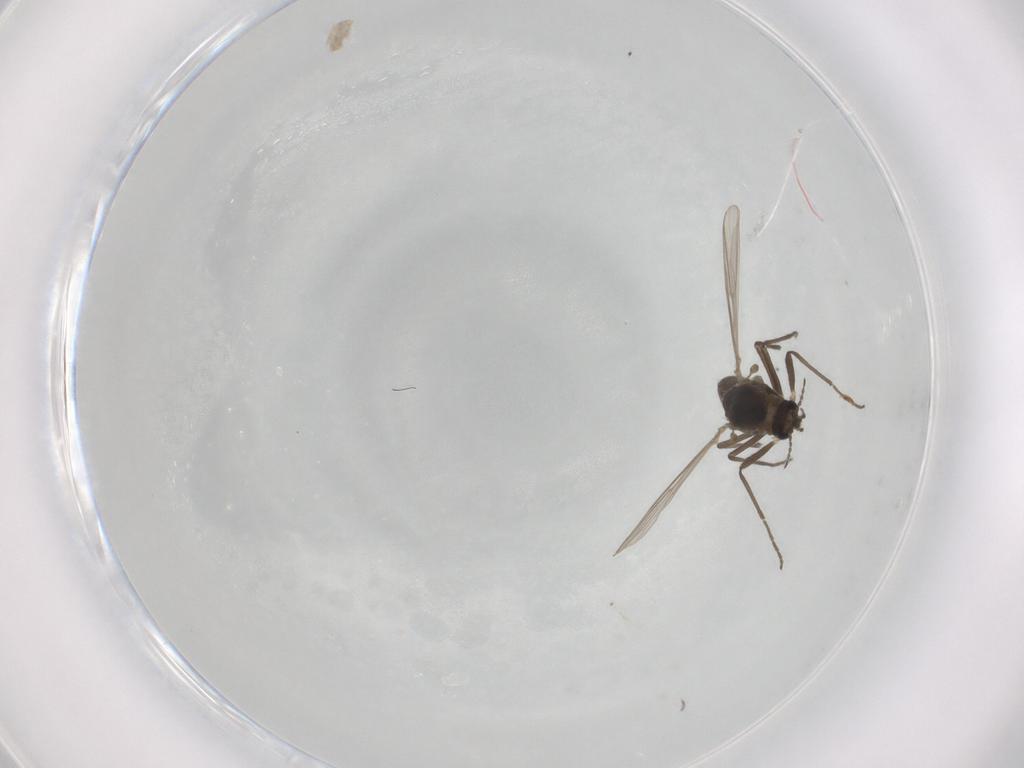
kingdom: Animalia
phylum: Arthropoda
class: Insecta
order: Diptera
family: Chironomidae
